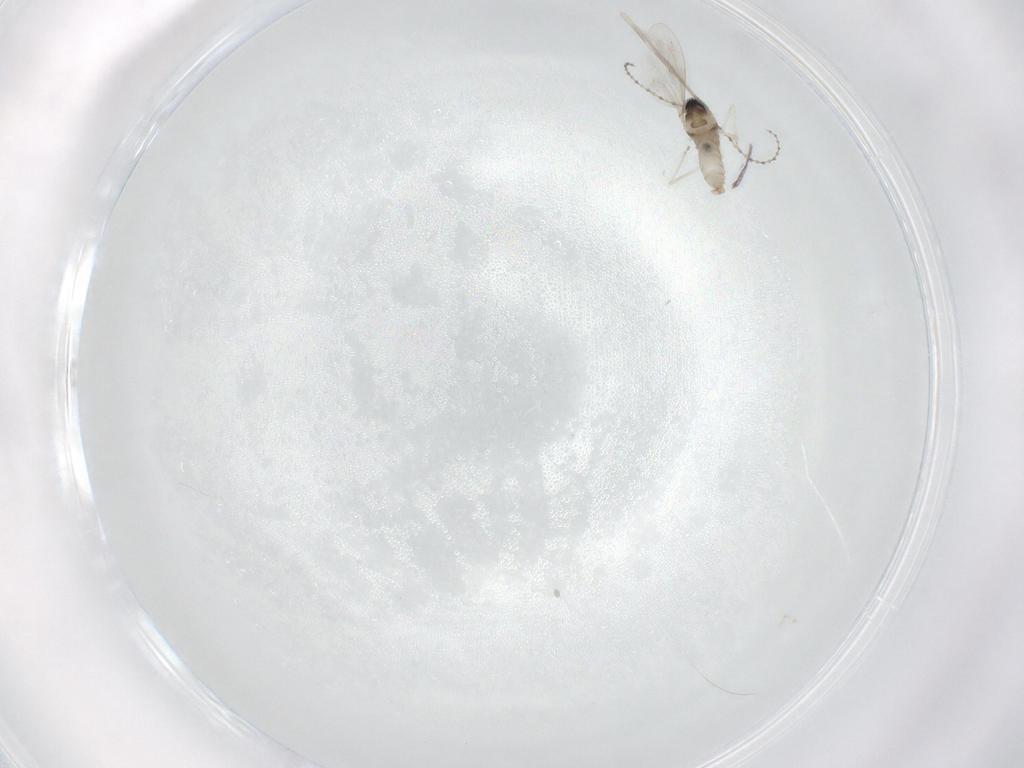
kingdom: Animalia
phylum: Arthropoda
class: Insecta
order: Diptera
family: Cecidomyiidae
